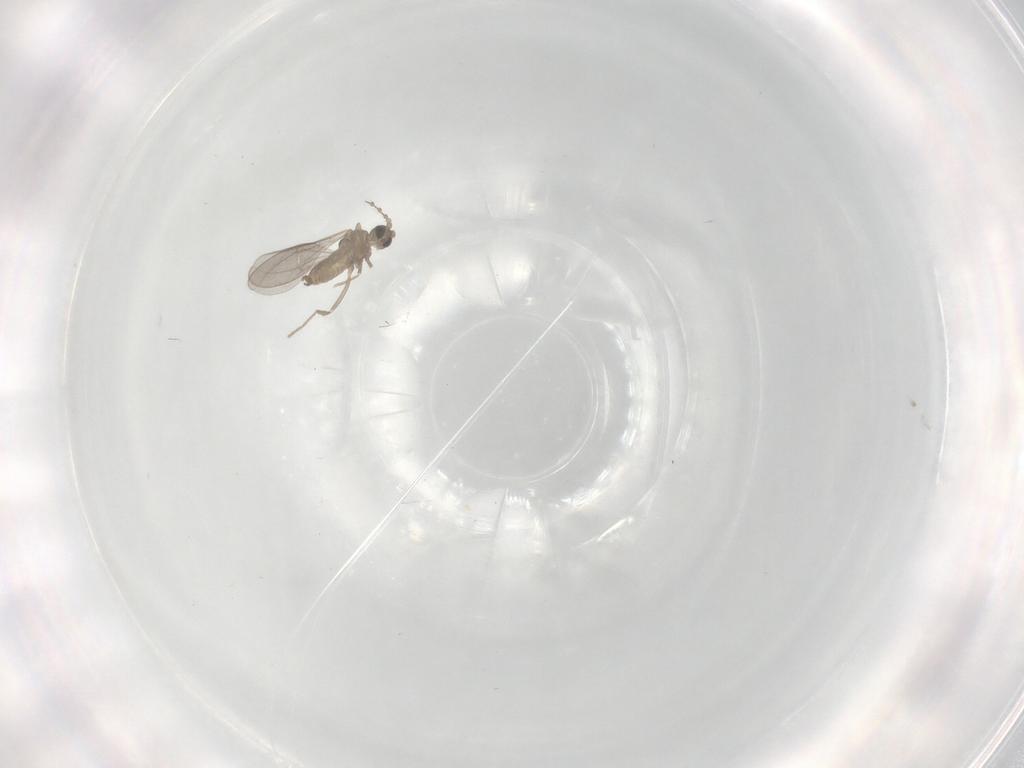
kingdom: Animalia
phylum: Arthropoda
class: Insecta
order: Diptera
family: Cecidomyiidae
